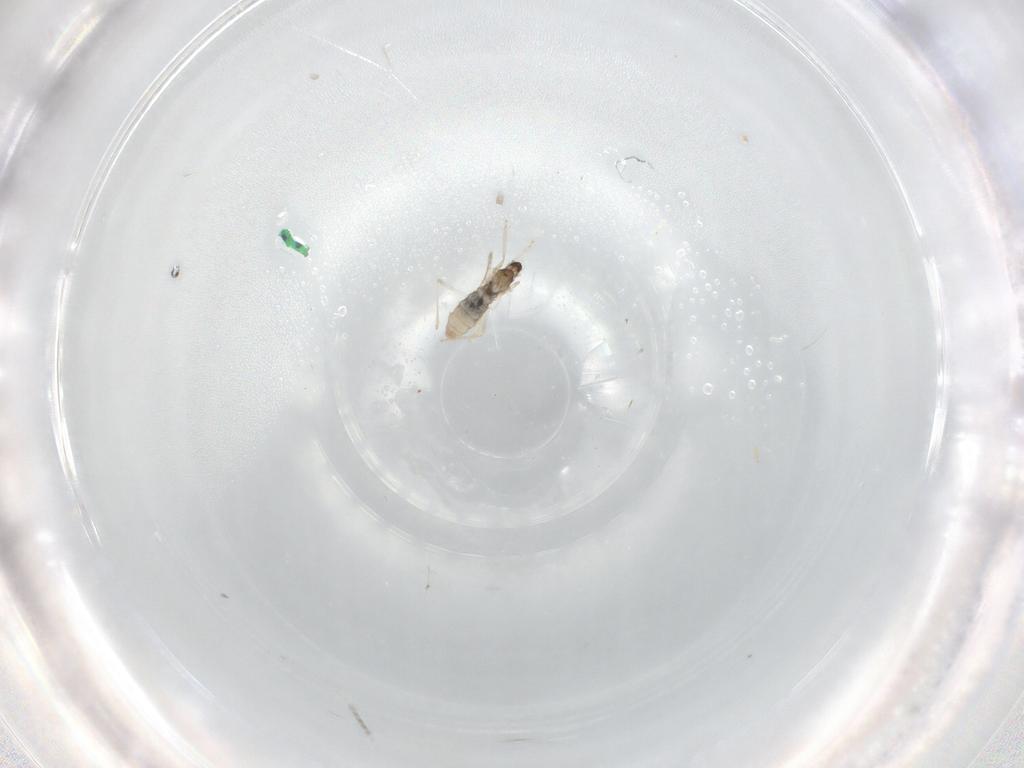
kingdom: Animalia
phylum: Arthropoda
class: Insecta
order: Diptera
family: Cecidomyiidae
